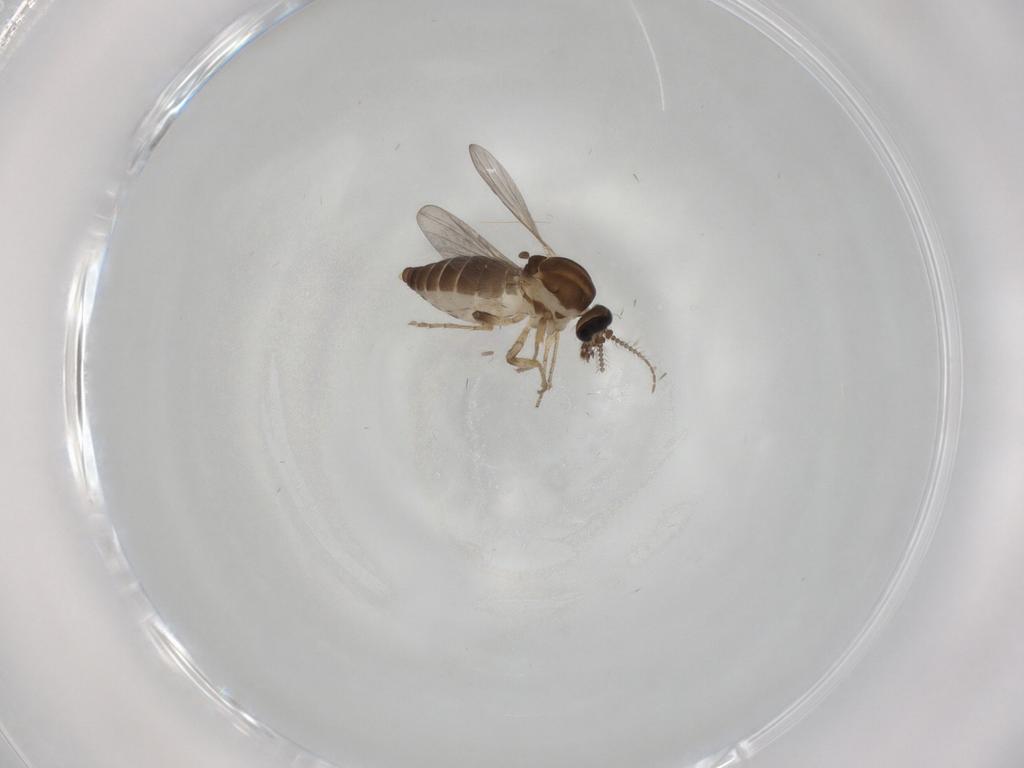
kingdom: Animalia
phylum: Arthropoda
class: Insecta
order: Diptera
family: Ceratopogonidae
